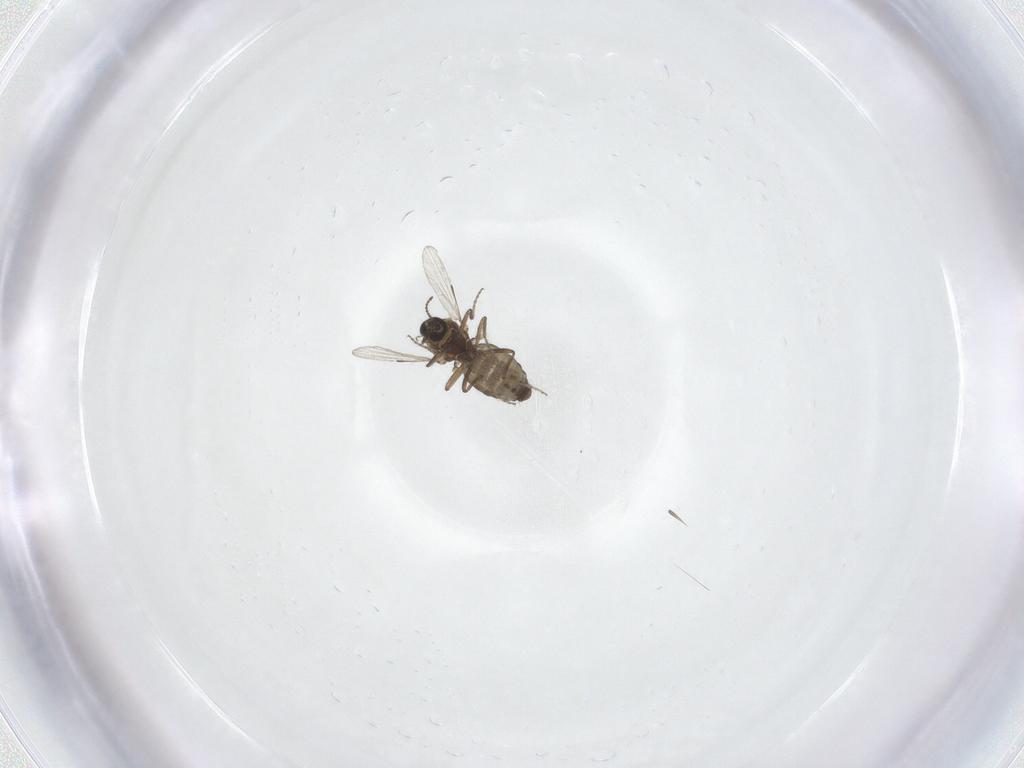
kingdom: Animalia
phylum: Arthropoda
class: Insecta
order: Diptera
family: Ceratopogonidae
